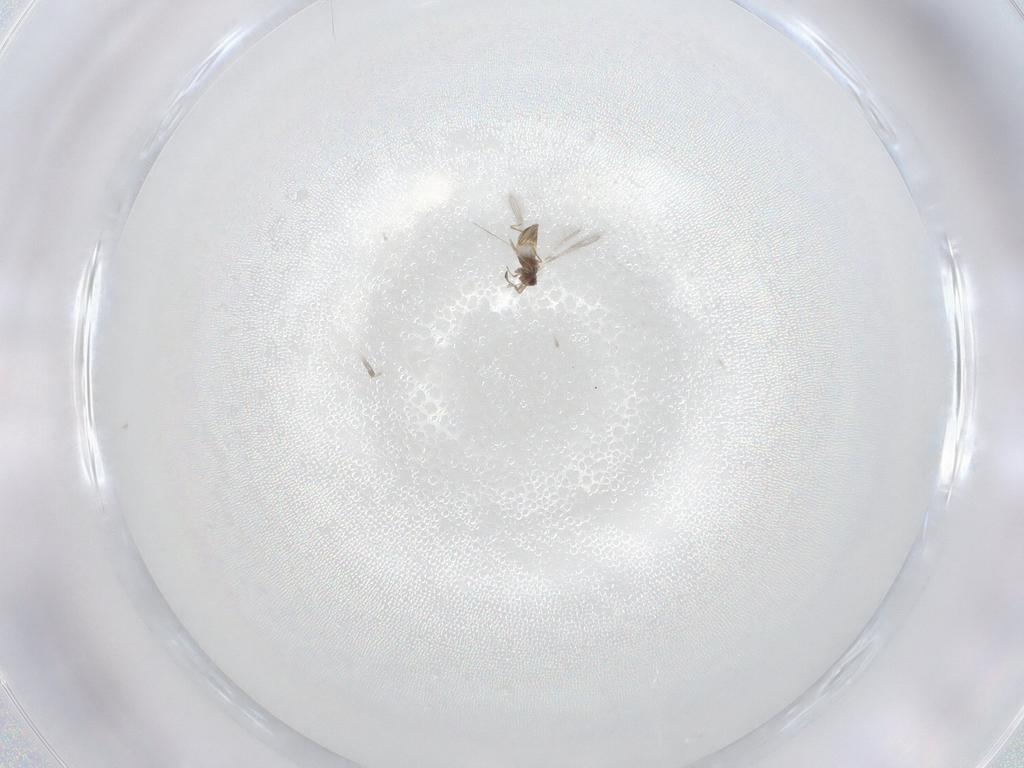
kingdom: Animalia
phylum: Arthropoda
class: Insecta
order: Hymenoptera
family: Mymaridae
